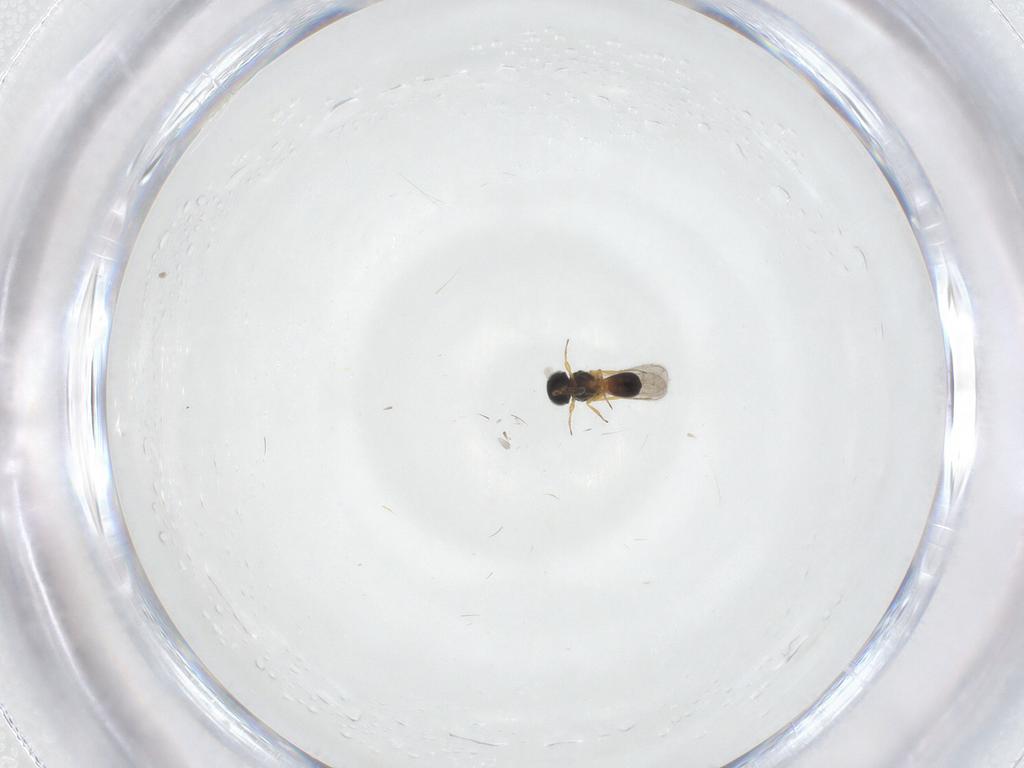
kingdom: Animalia
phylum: Arthropoda
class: Insecta
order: Hymenoptera
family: Scelionidae
